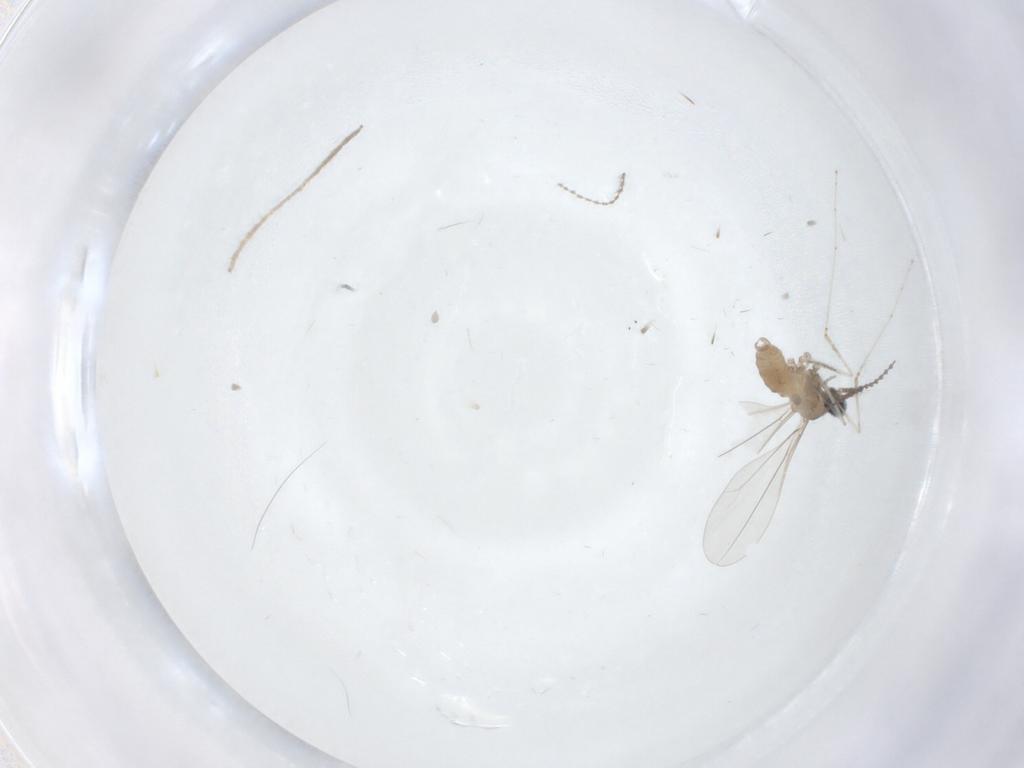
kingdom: Animalia
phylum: Arthropoda
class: Insecta
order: Diptera
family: Cecidomyiidae
